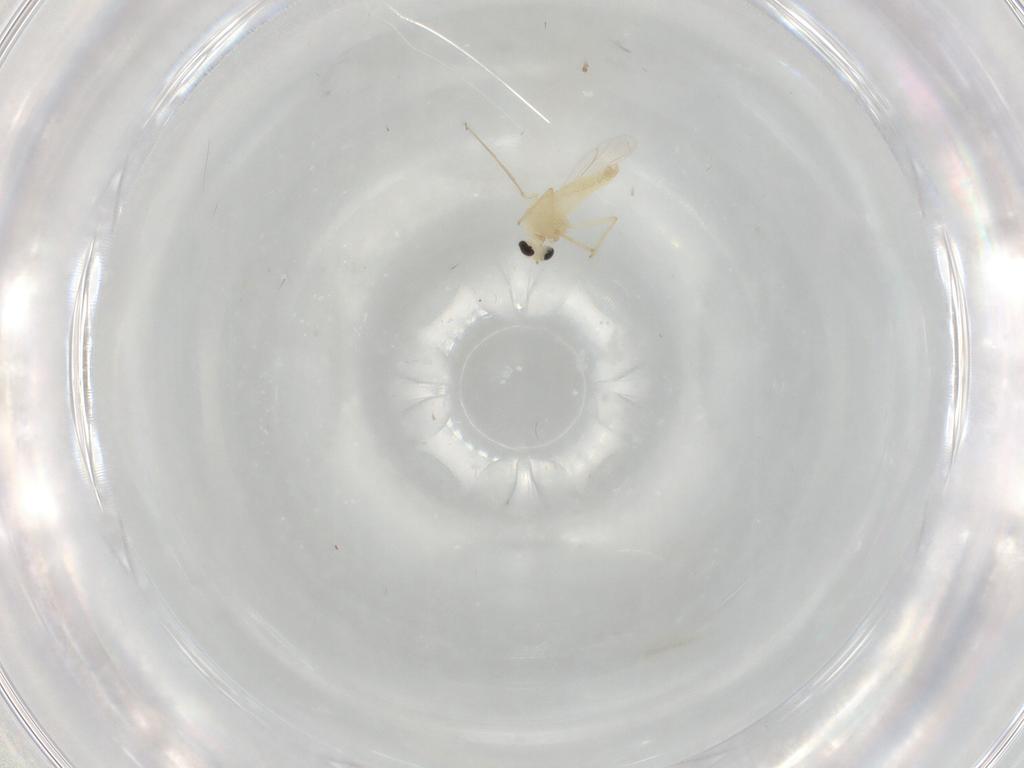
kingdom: Animalia
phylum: Arthropoda
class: Insecta
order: Diptera
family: Chironomidae
